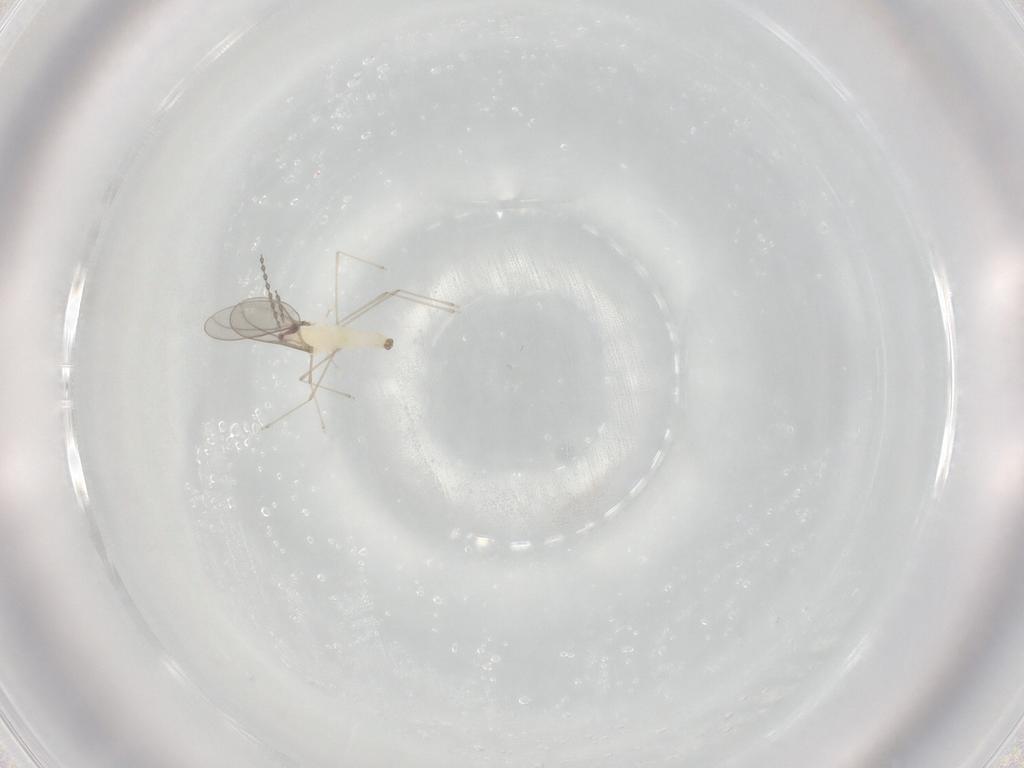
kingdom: Animalia
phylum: Arthropoda
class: Insecta
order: Diptera
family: Cecidomyiidae
